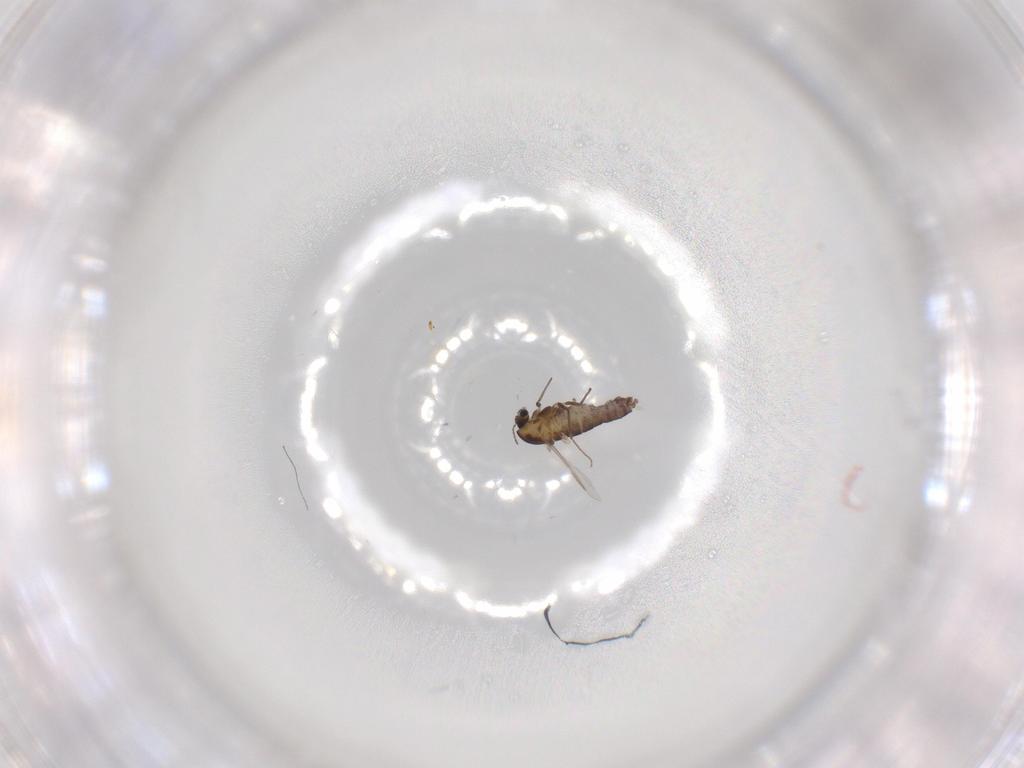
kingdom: Animalia
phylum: Arthropoda
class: Insecta
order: Diptera
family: Chironomidae
